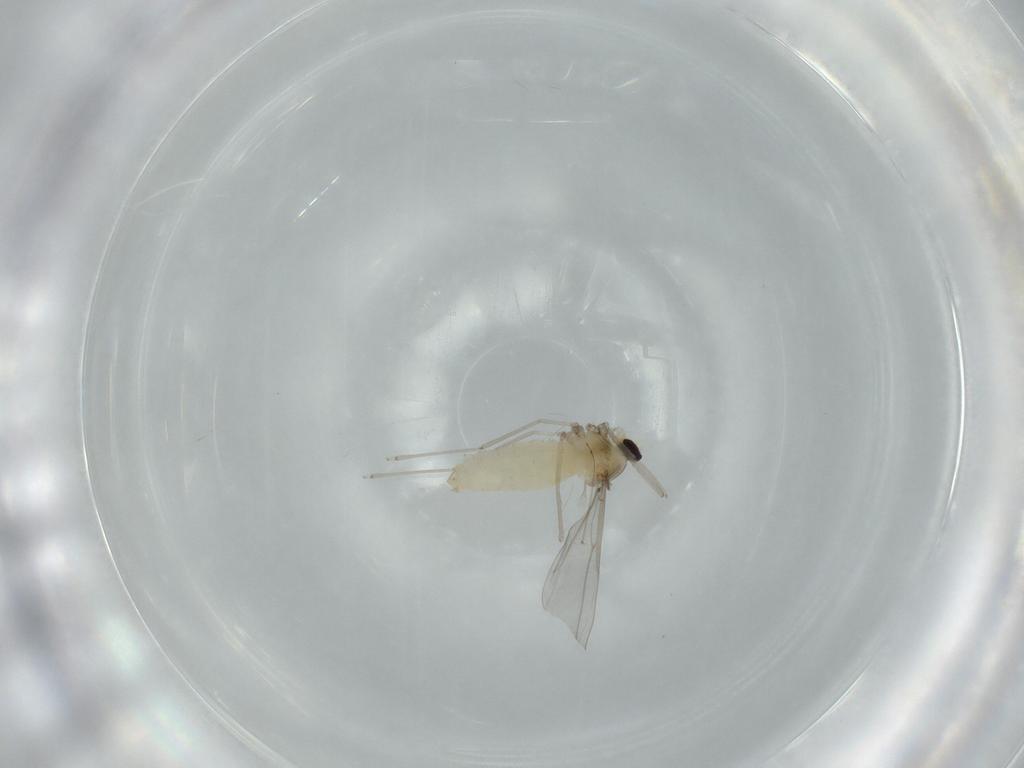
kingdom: Animalia
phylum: Arthropoda
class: Insecta
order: Diptera
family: Cecidomyiidae
